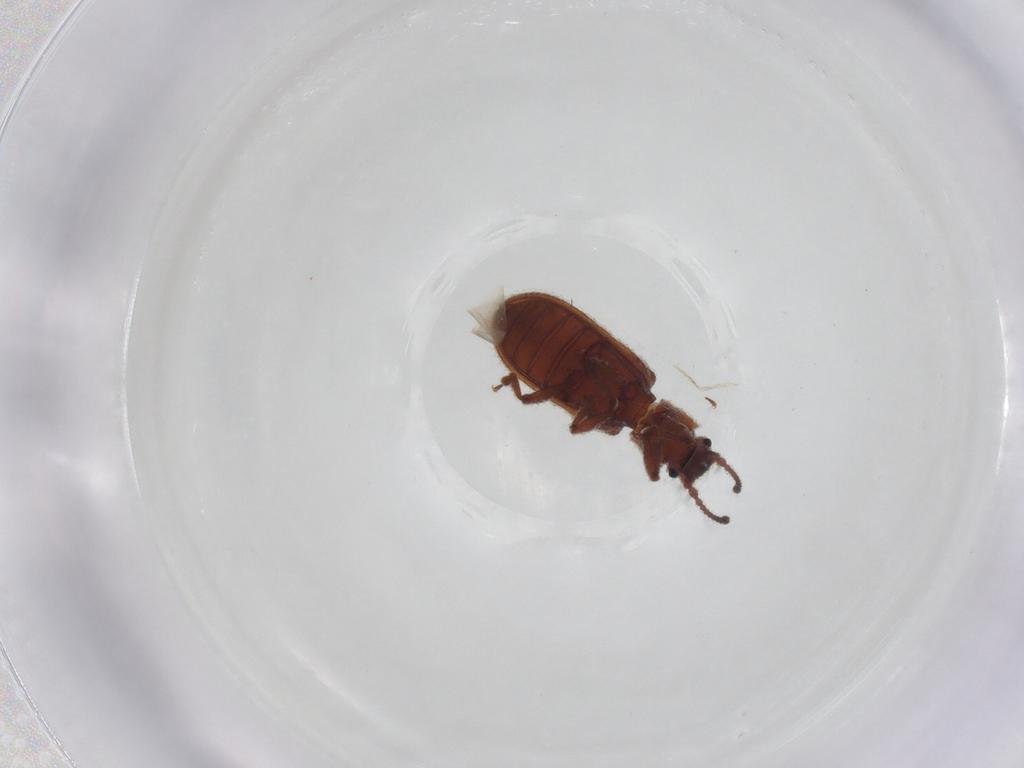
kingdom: Animalia
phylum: Arthropoda
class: Insecta
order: Coleoptera
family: Zopheridae
